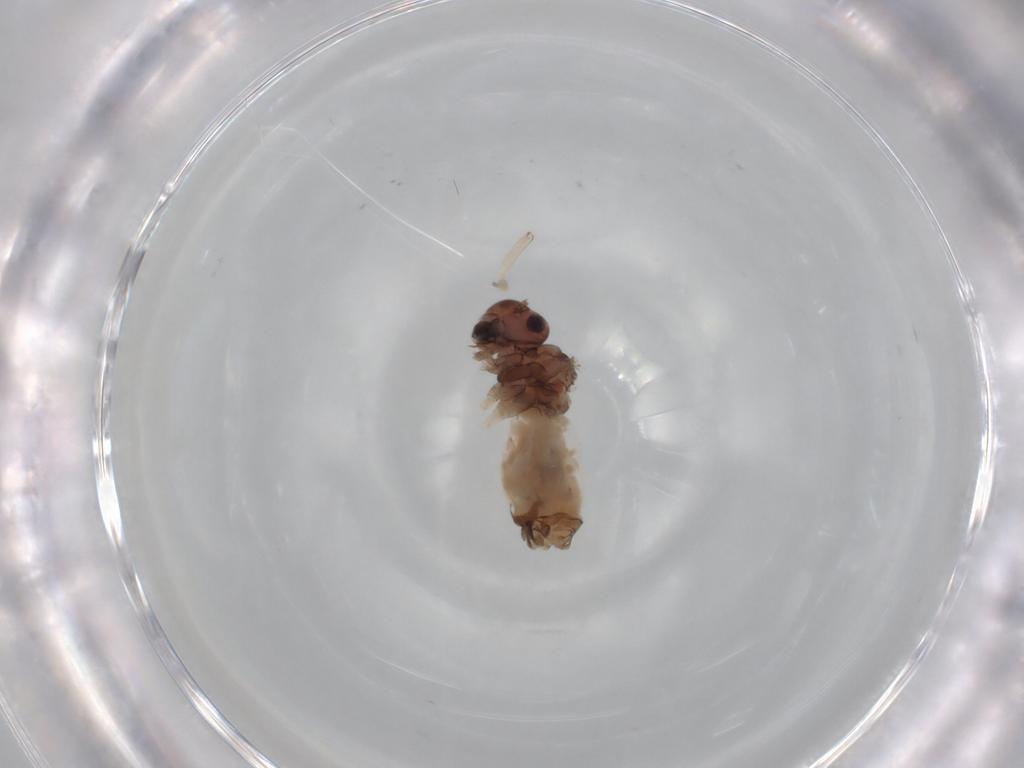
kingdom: Animalia
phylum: Arthropoda
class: Insecta
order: Psocodea
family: Peripsocidae
